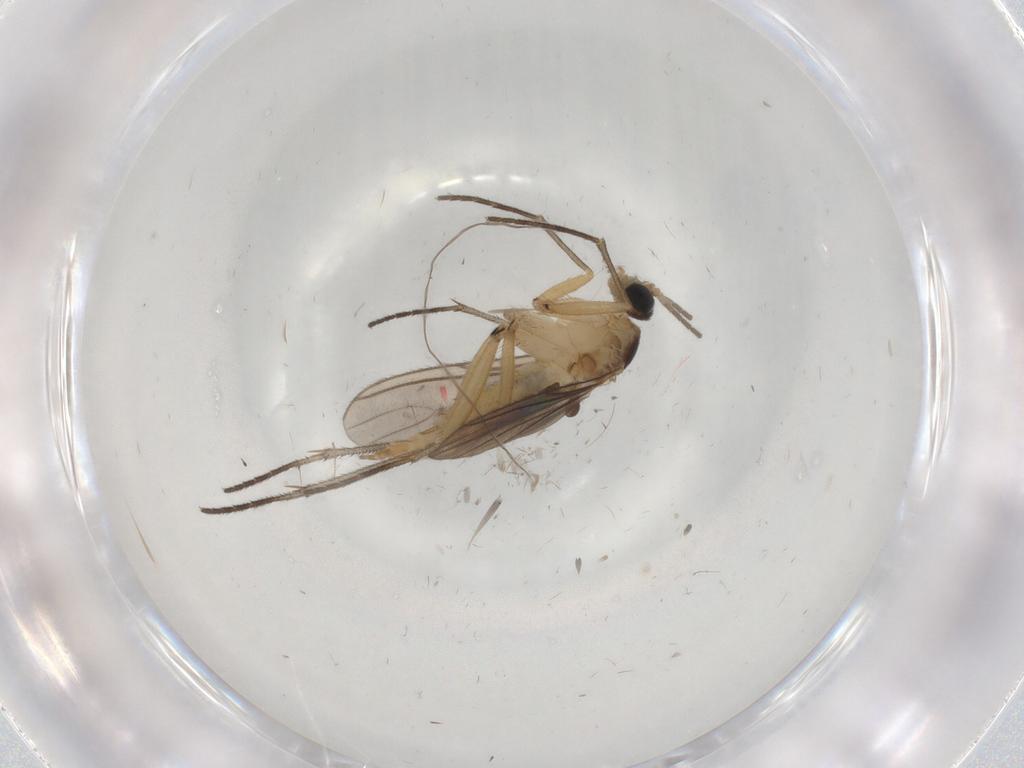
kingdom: Animalia
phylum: Arthropoda
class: Insecta
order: Diptera
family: Sciaridae
